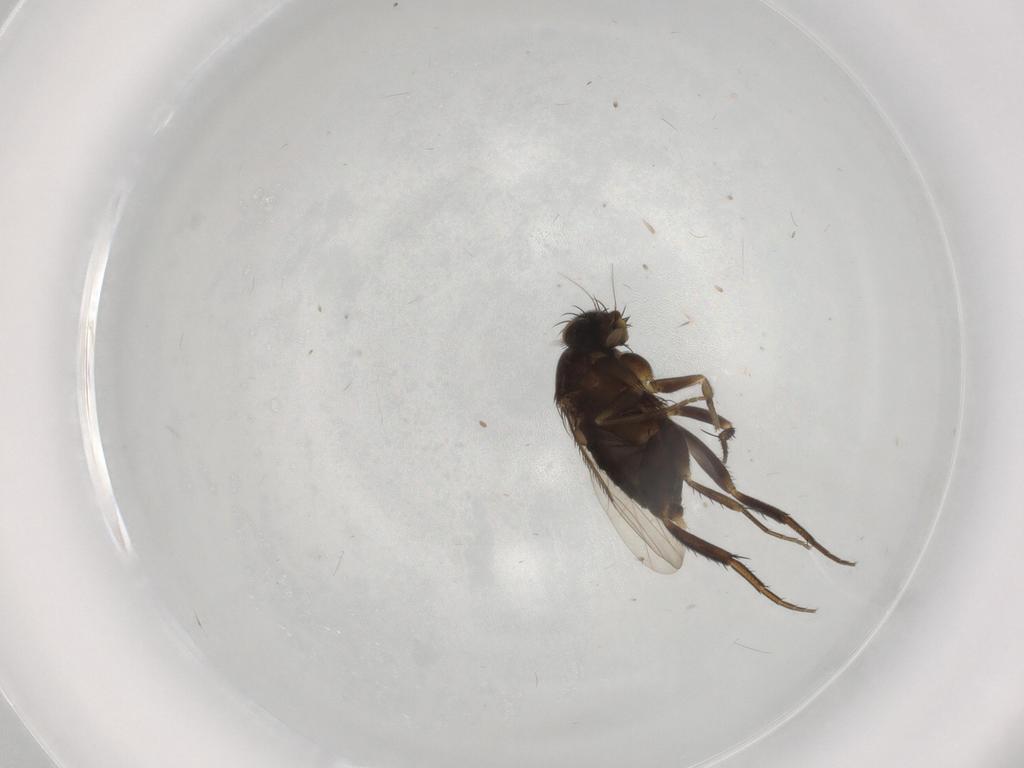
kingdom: Animalia
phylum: Arthropoda
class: Insecta
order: Diptera
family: Phoridae
